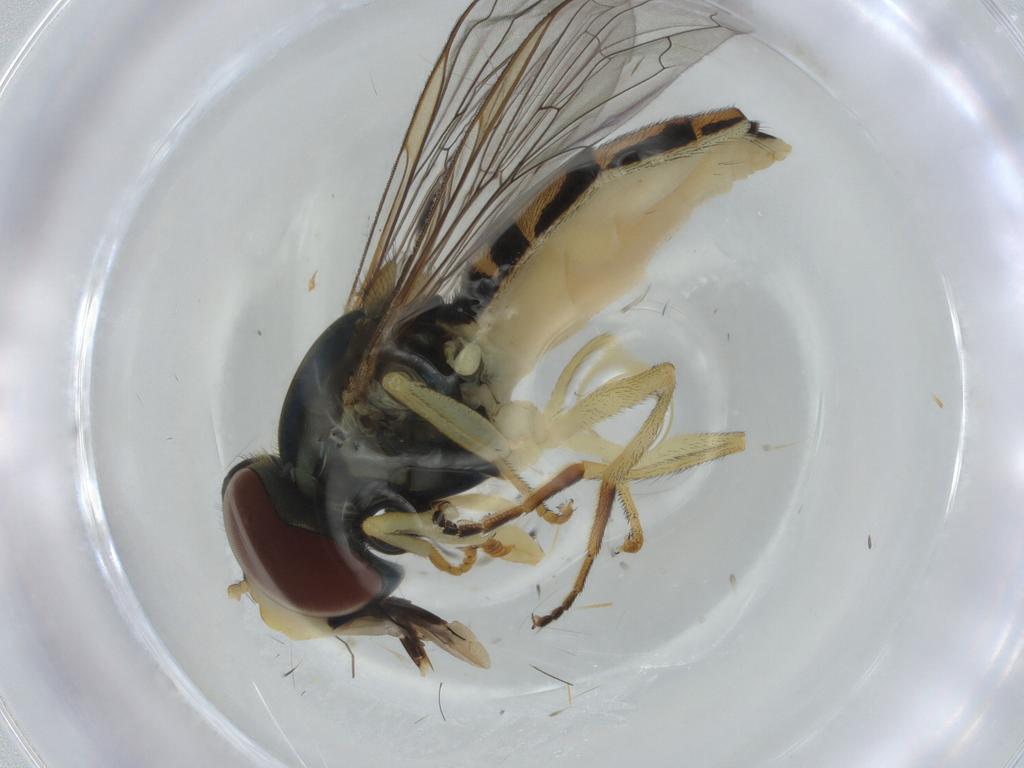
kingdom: Animalia
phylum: Arthropoda
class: Insecta
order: Diptera
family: Syrphidae
